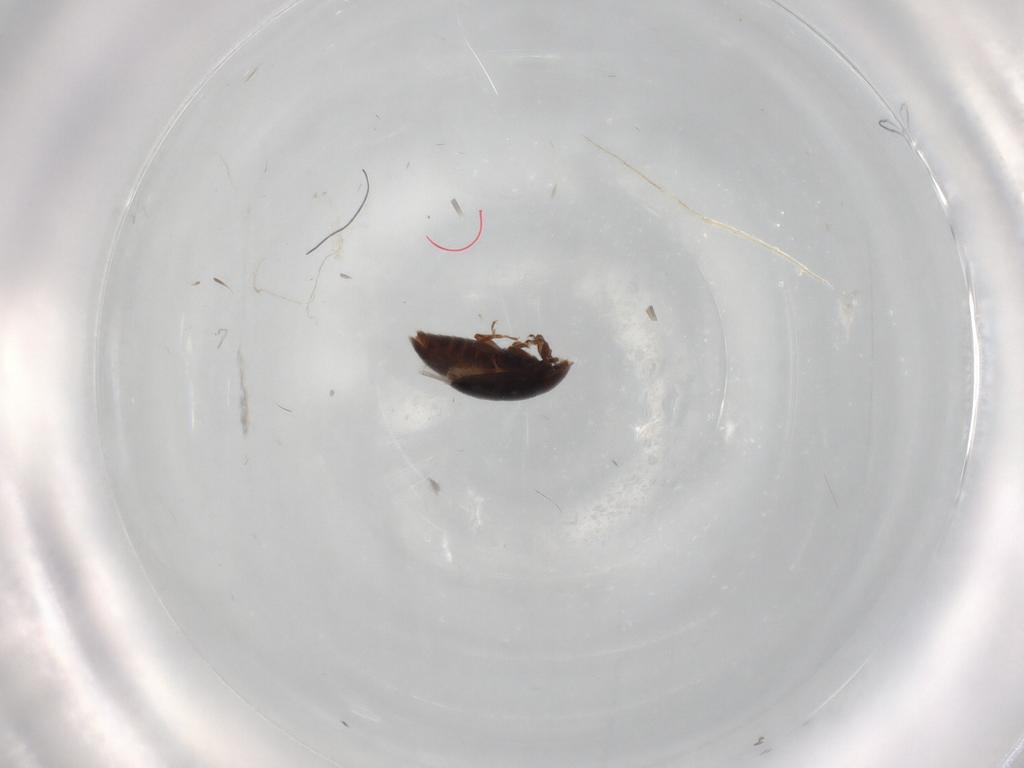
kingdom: Animalia
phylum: Arthropoda
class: Insecta
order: Coleoptera
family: Corylophidae
